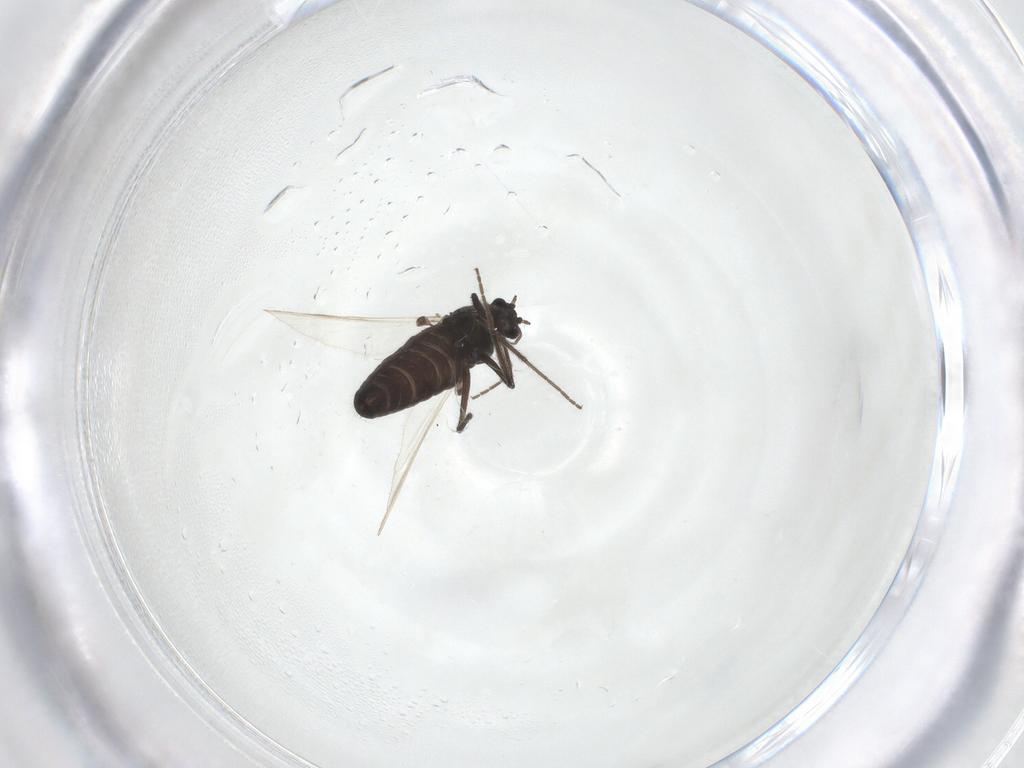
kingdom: Animalia
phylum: Arthropoda
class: Insecta
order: Diptera
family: Chironomidae
